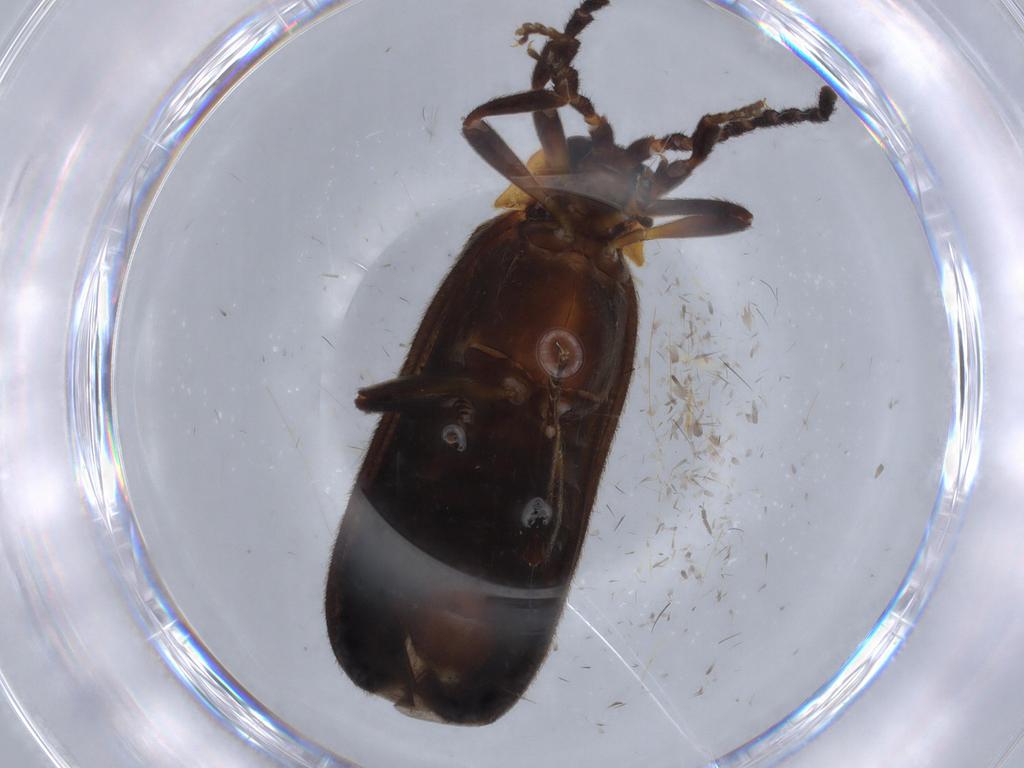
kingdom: Animalia
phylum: Arthropoda
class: Insecta
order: Coleoptera
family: Lycidae
